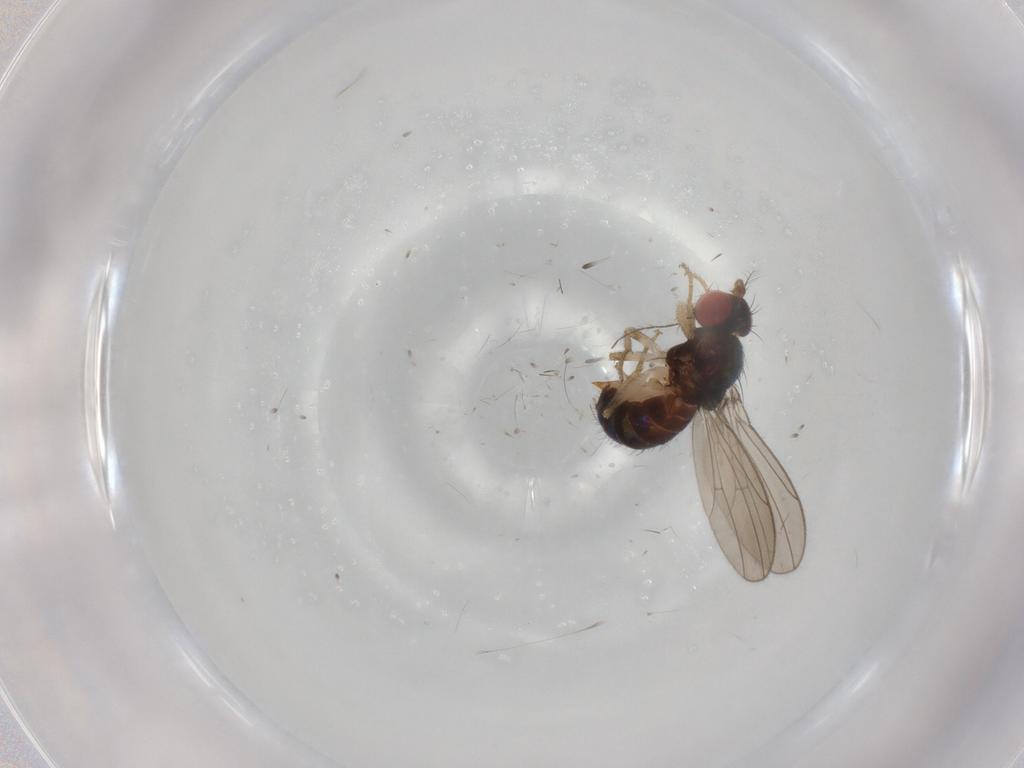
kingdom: Animalia
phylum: Arthropoda
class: Insecta
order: Diptera
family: Drosophilidae
